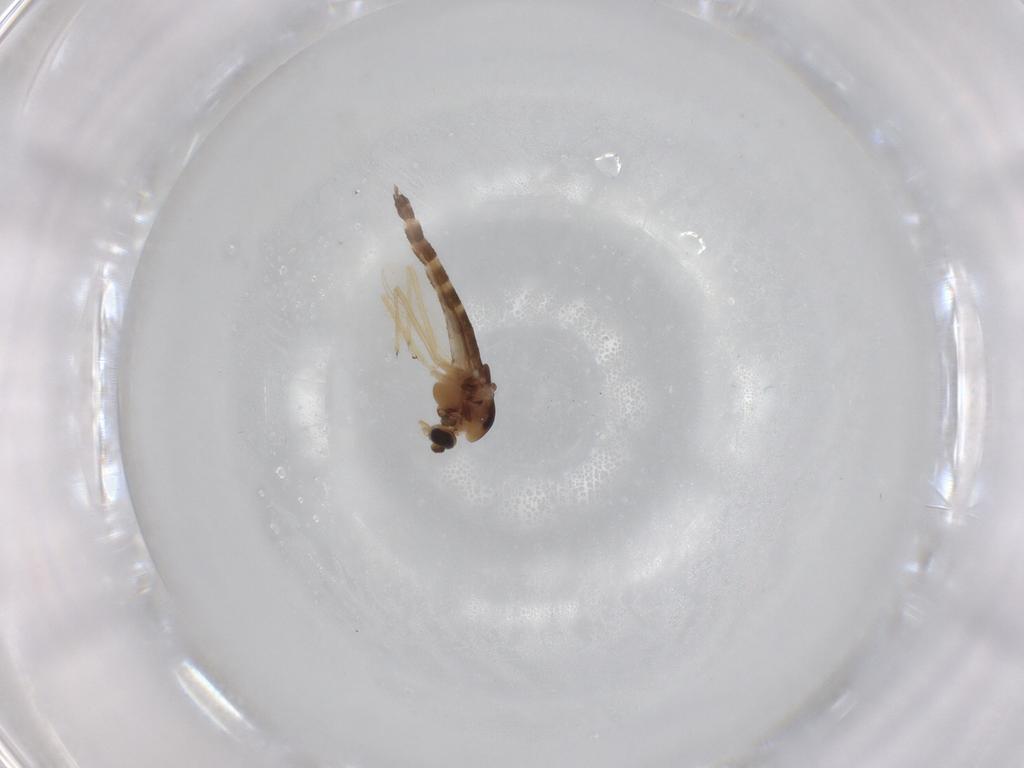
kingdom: Animalia
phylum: Arthropoda
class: Insecta
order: Diptera
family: Chironomidae
